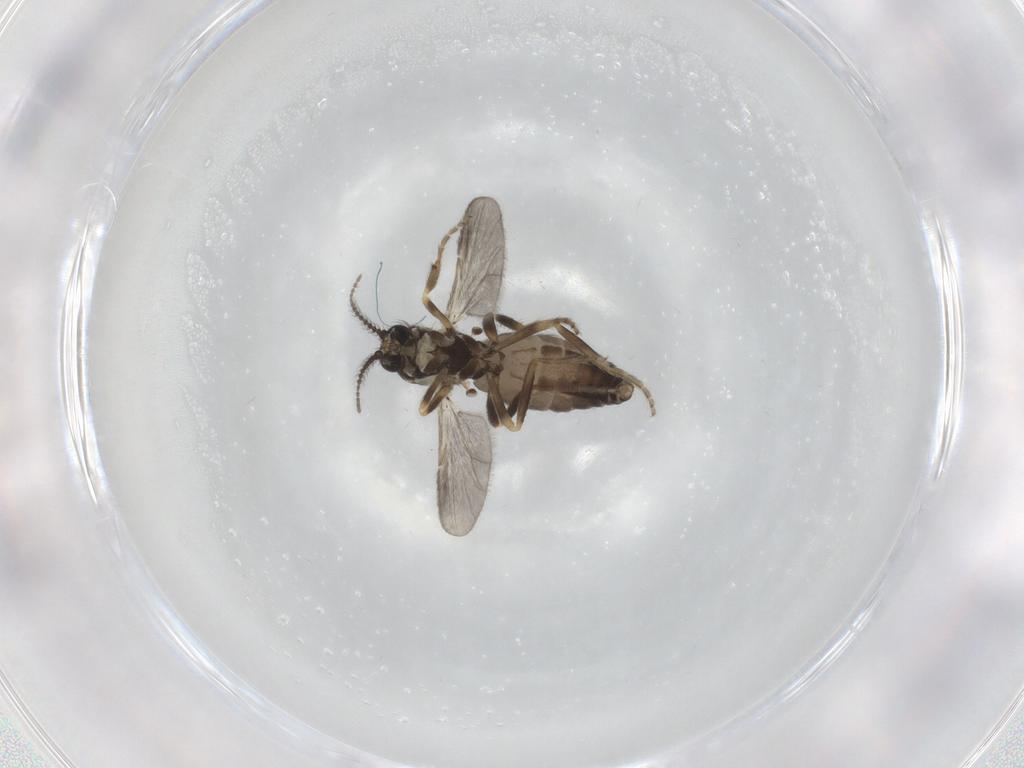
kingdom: Animalia
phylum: Arthropoda
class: Insecta
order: Diptera
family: Ceratopogonidae
